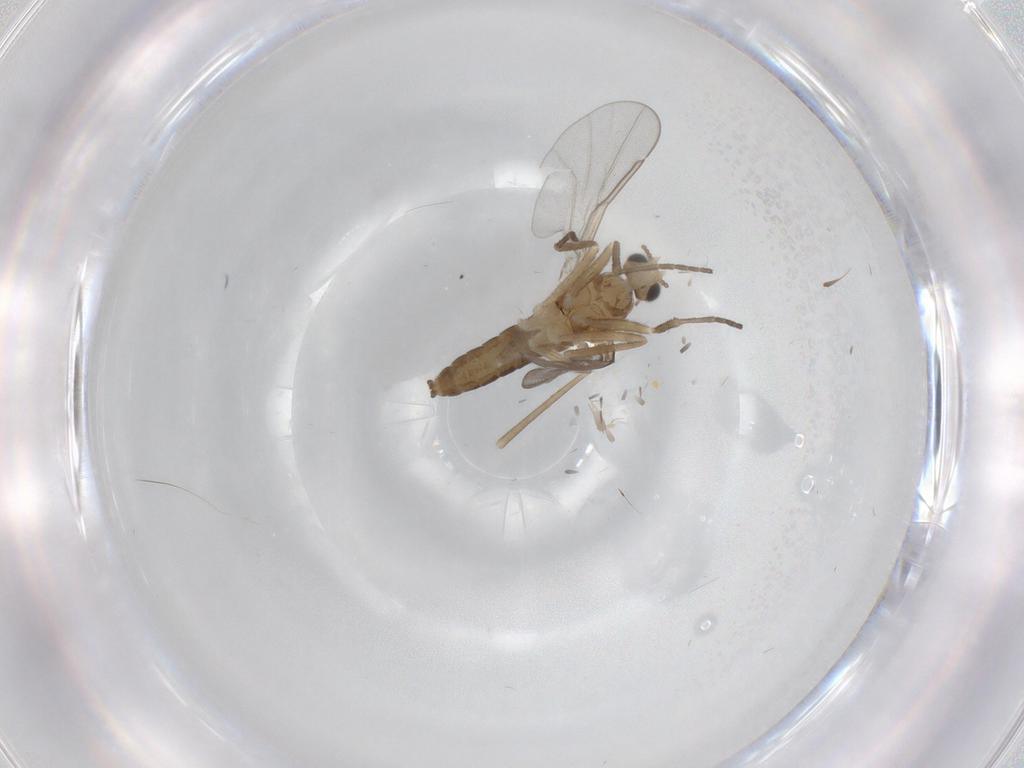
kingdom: Animalia
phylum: Arthropoda
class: Insecta
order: Diptera
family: Cecidomyiidae
